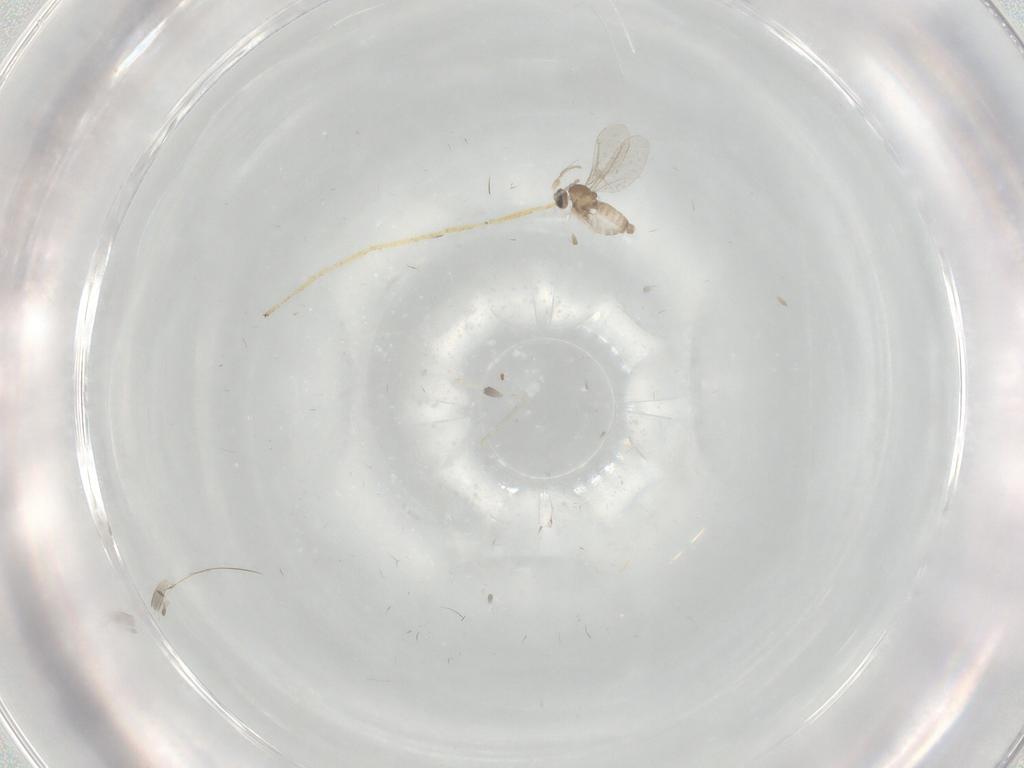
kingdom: Animalia
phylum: Arthropoda
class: Insecta
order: Diptera
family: Cecidomyiidae
